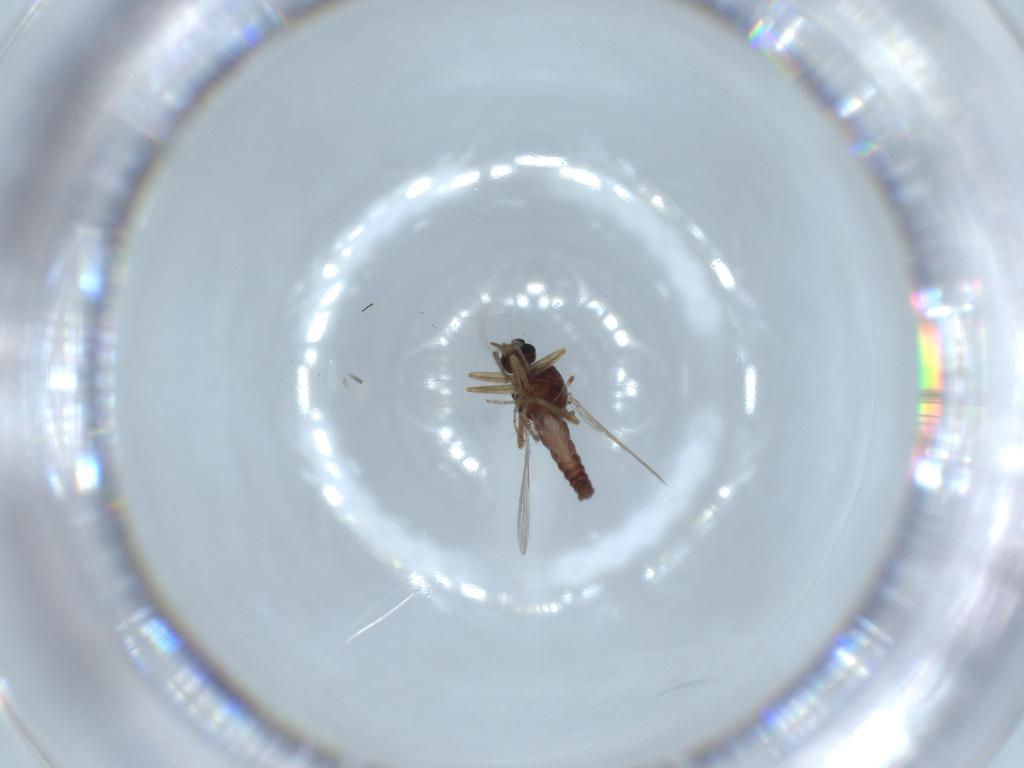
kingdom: Animalia
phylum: Arthropoda
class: Insecta
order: Diptera
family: Ceratopogonidae
